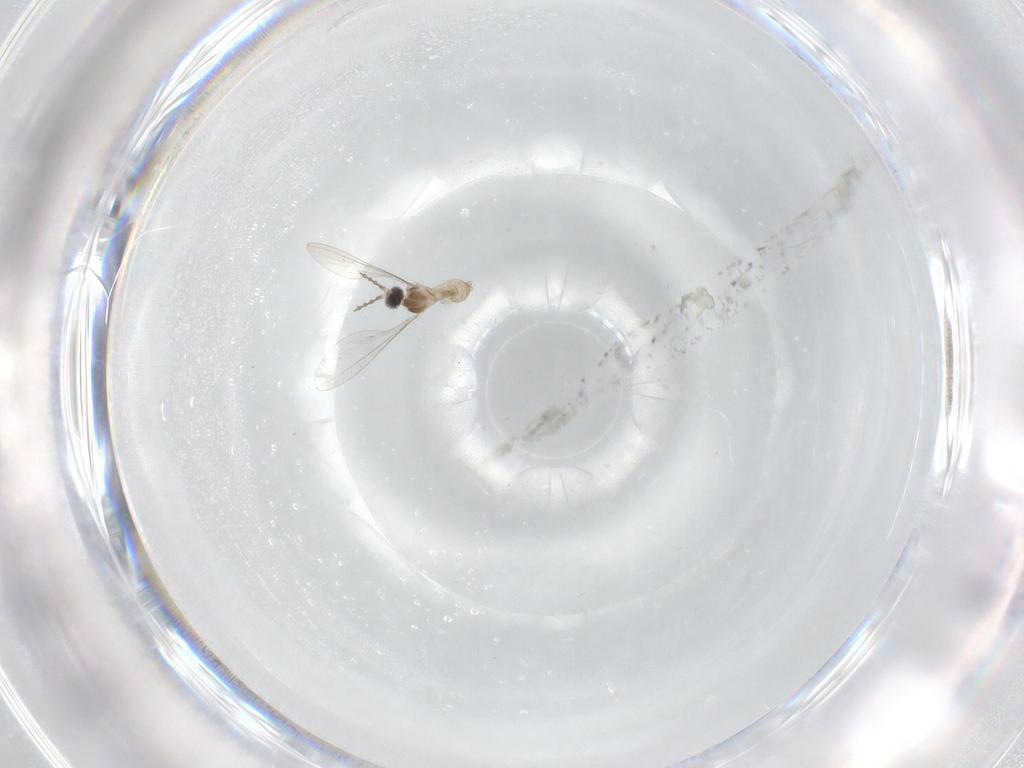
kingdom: Animalia
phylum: Arthropoda
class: Insecta
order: Diptera
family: Cecidomyiidae
